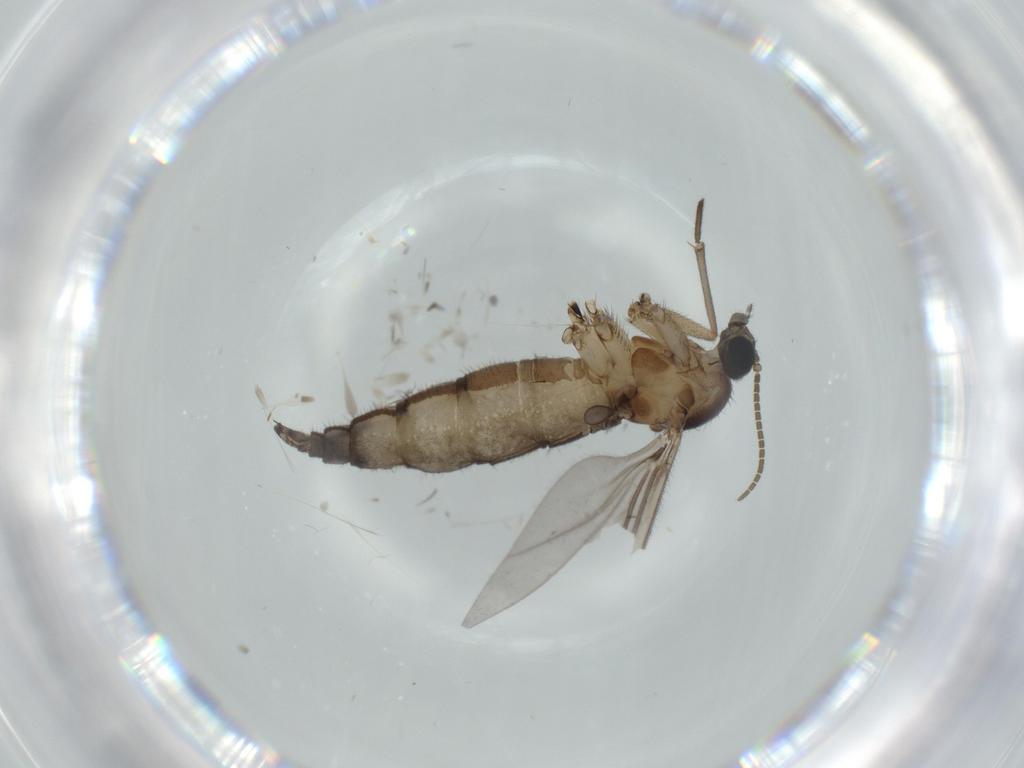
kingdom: Animalia
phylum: Arthropoda
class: Insecta
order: Diptera
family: Sciaridae
